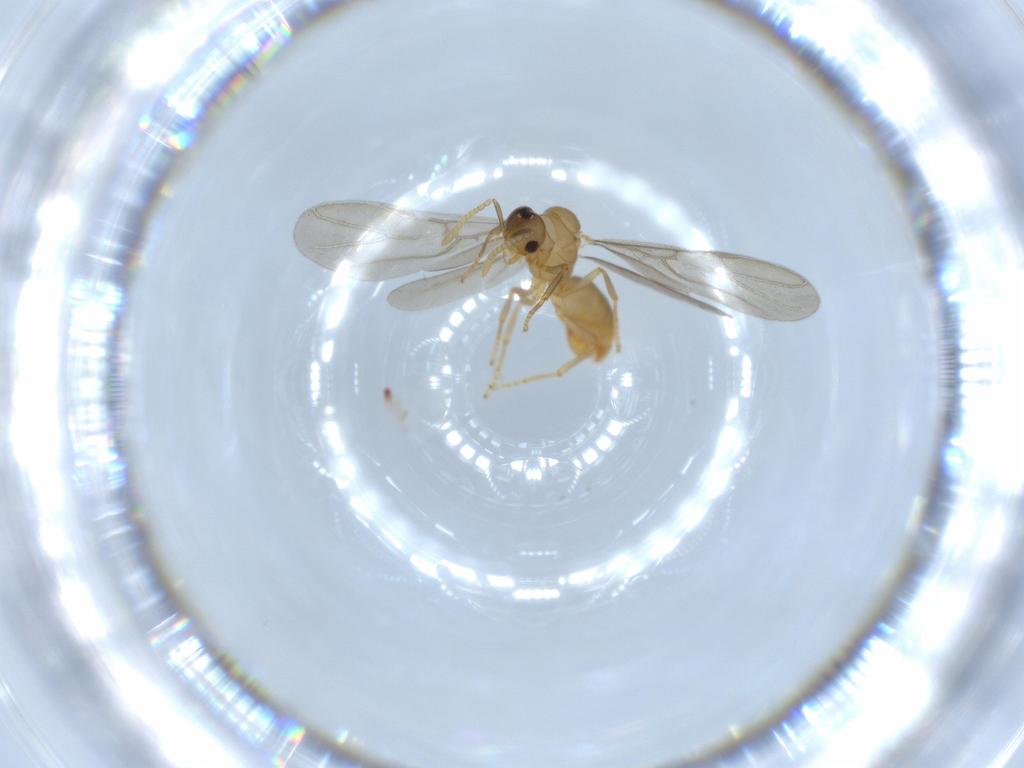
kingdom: Animalia
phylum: Arthropoda
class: Insecta
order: Hymenoptera
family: Formicidae
